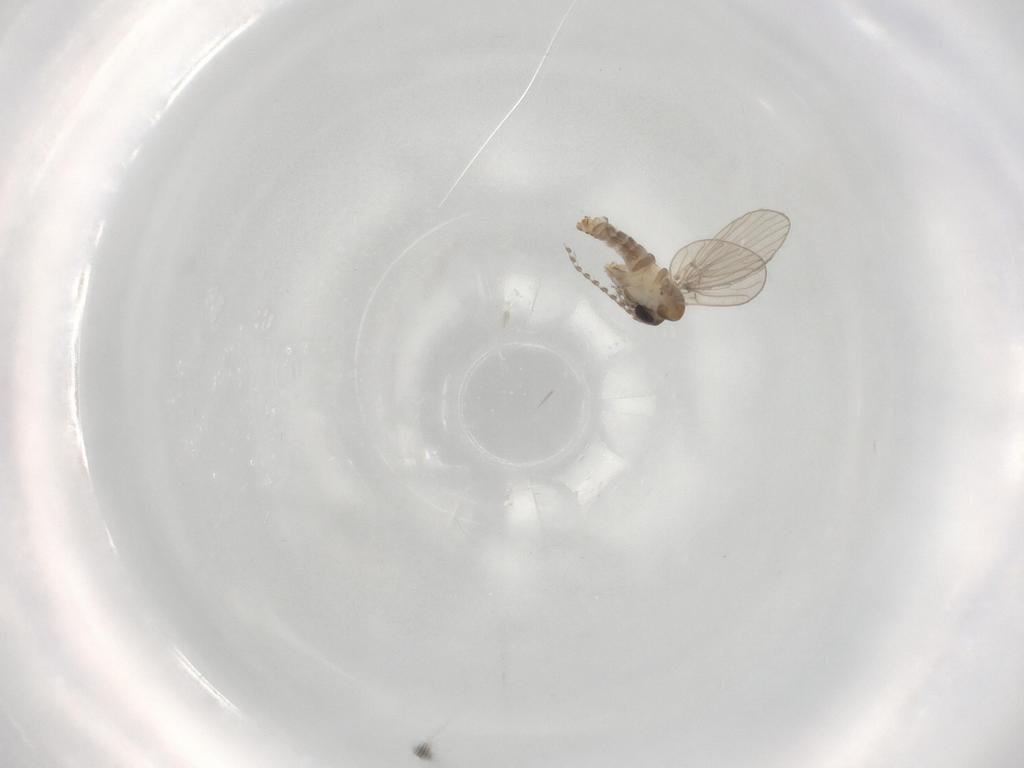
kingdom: Animalia
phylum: Arthropoda
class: Insecta
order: Diptera
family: Psychodidae
